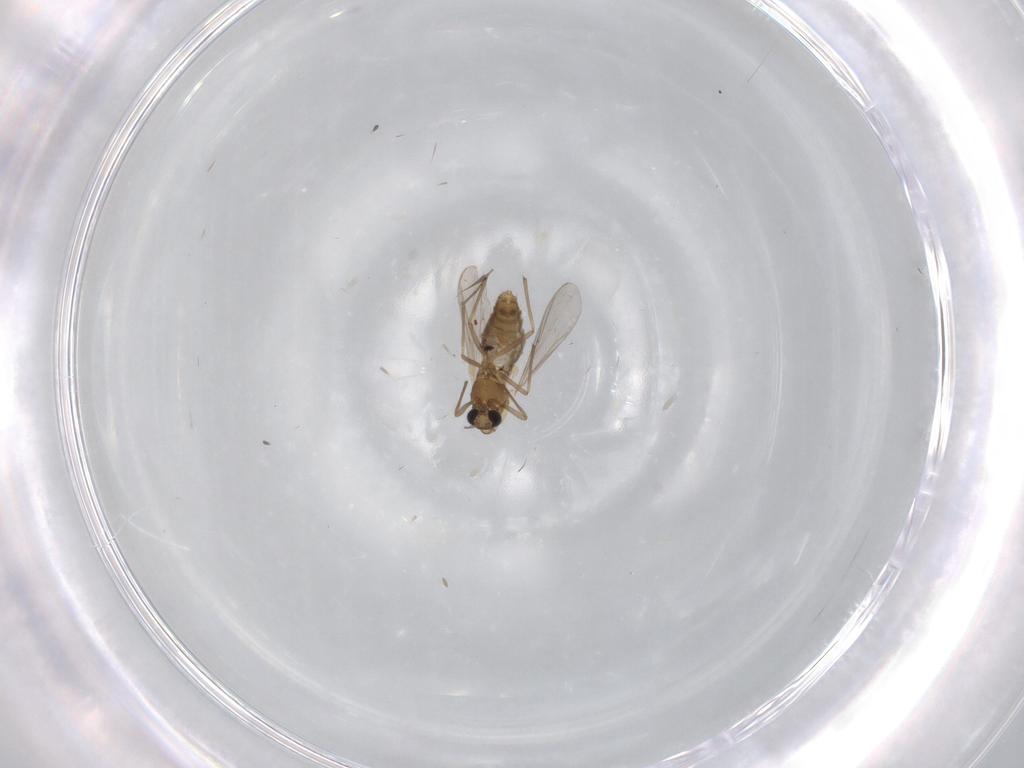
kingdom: Animalia
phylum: Arthropoda
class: Insecta
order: Diptera
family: Chironomidae
